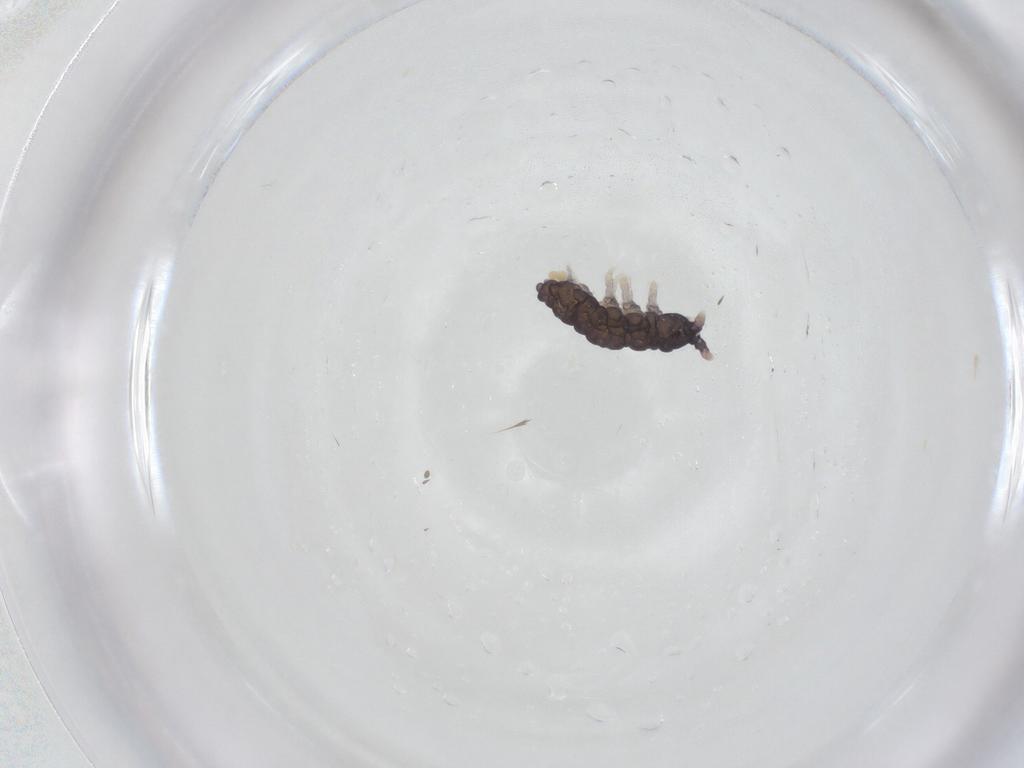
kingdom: Animalia
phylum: Arthropoda
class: Collembola
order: Poduromorpha
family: Neanuridae
